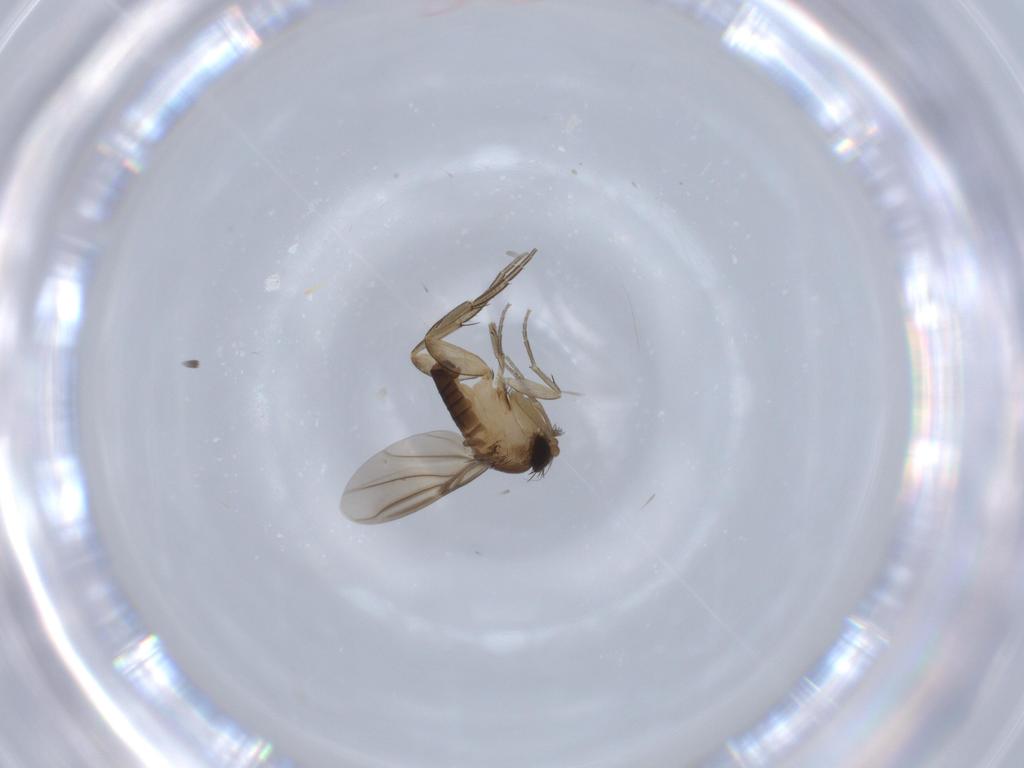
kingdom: Animalia
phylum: Arthropoda
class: Insecta
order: Diptera
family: Phoridae
